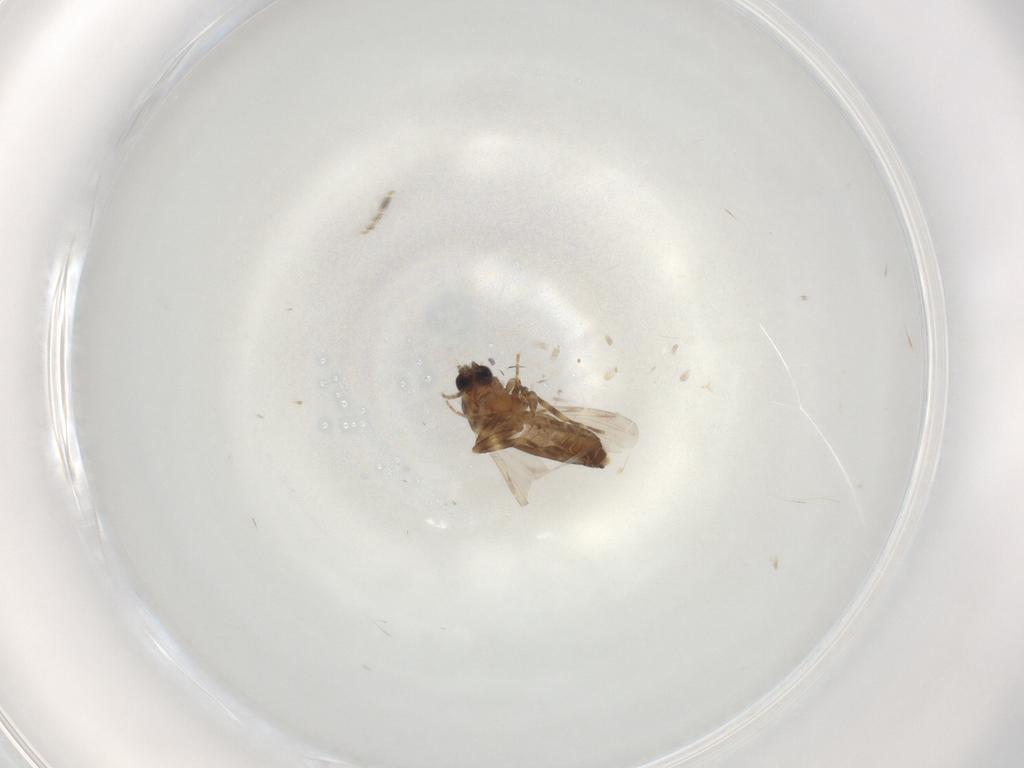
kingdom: Animalia
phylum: Arthropoda
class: Insecta
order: Diptera
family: Ceratopogonidae
